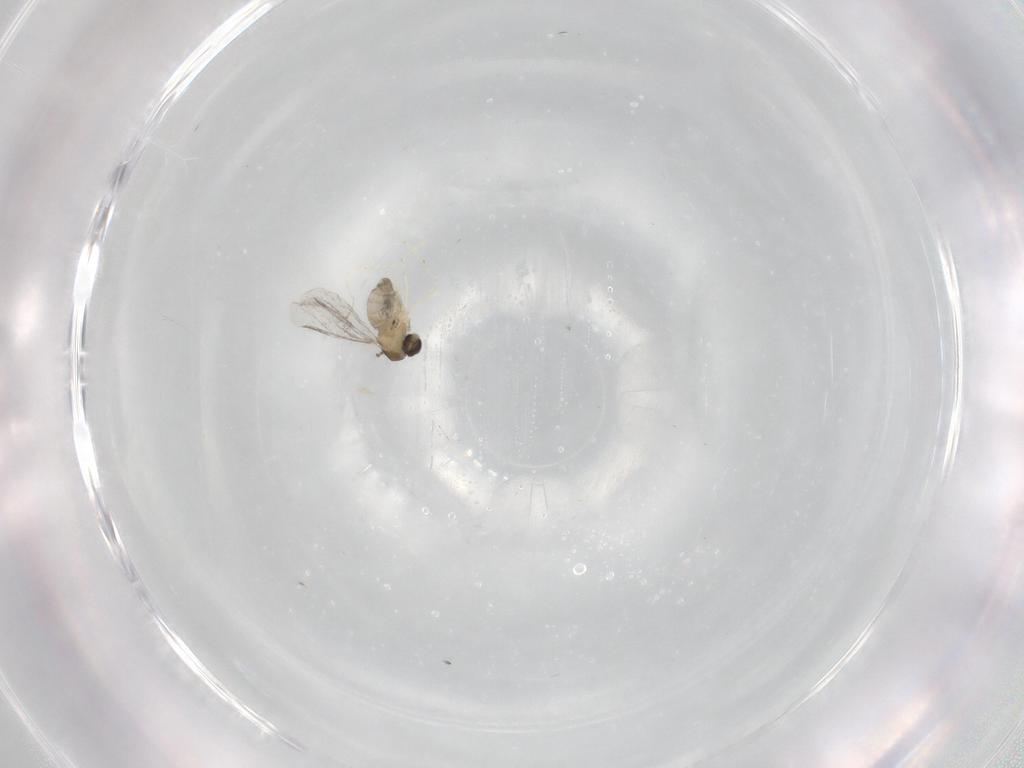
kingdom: Animalia
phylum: Arthropoda
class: Insecta
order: Diptera
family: Cecidomyiidae
